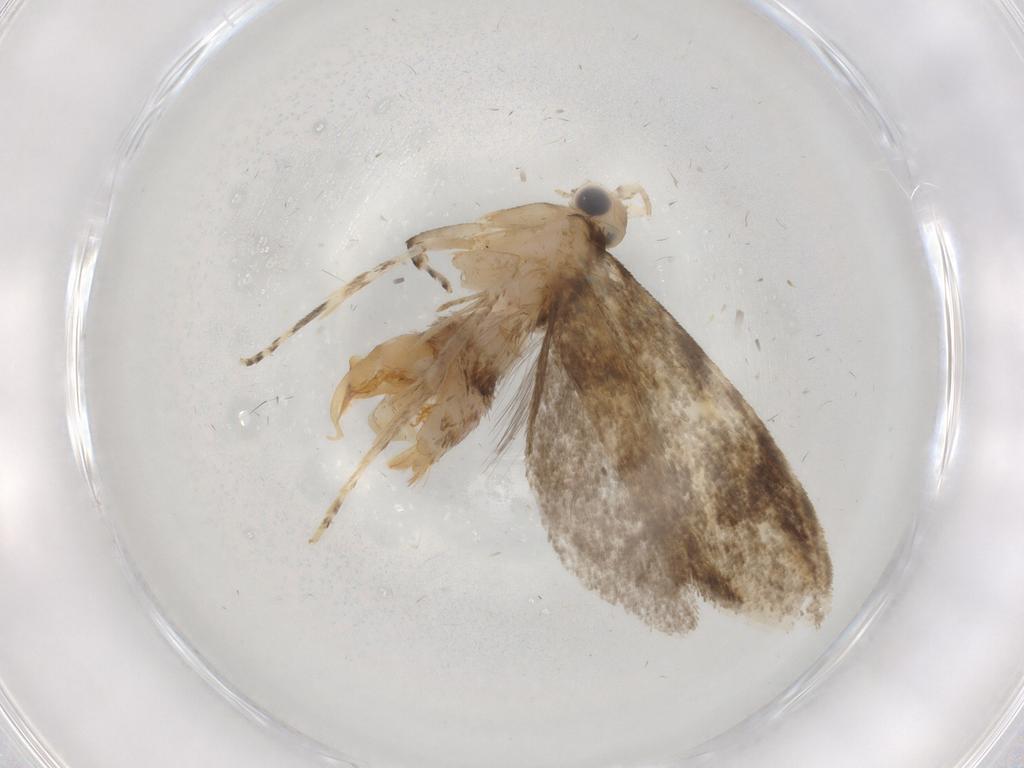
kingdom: Animalia
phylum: Arthropoda
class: Insecta
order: Lepidoptera
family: Tineidae
